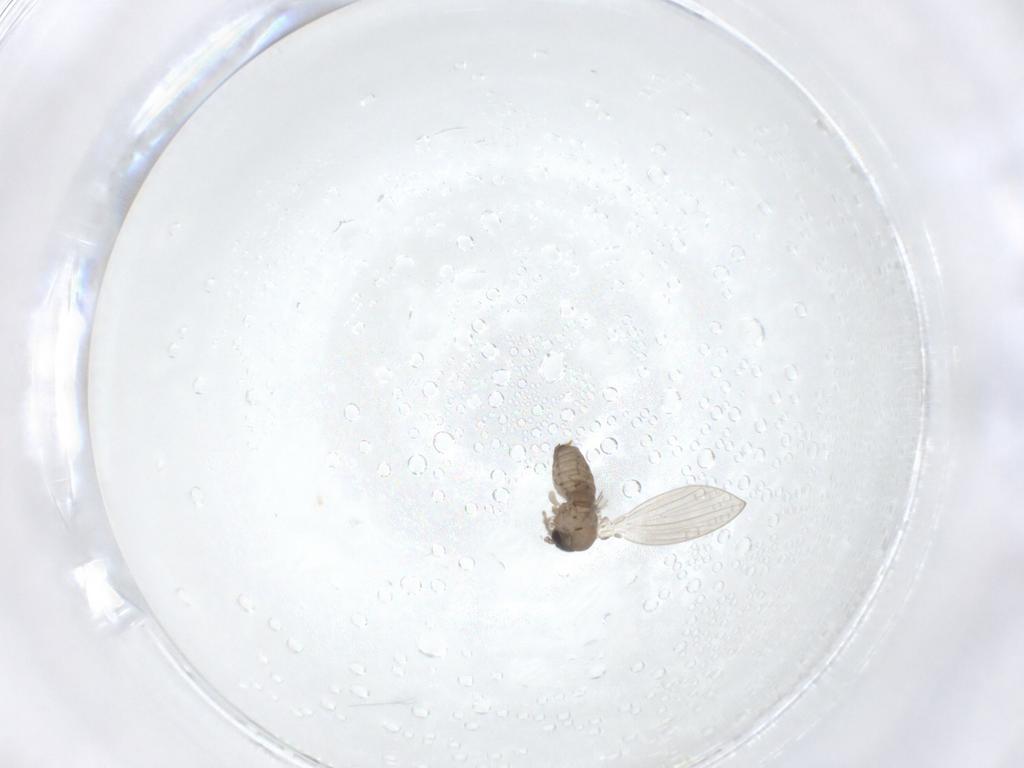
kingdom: Animalia
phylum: Arthropoda
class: Insecta
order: Diptera
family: Psychodidae
